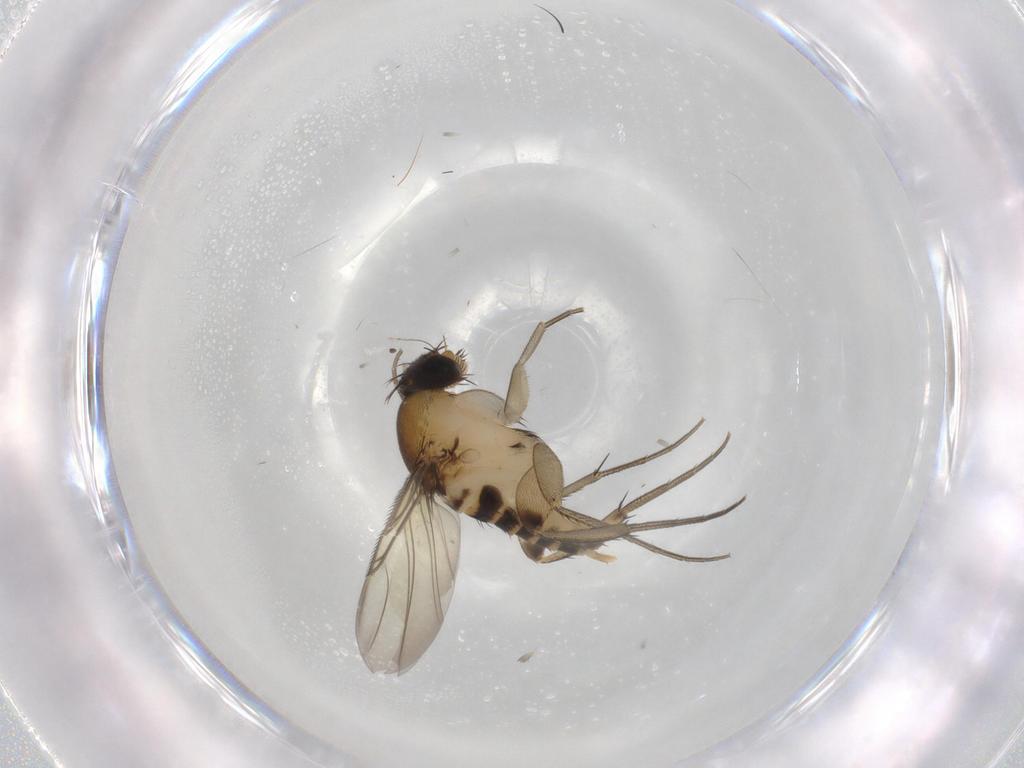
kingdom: Animalia
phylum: Arthropoda
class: Insecta
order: Diptera
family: Phoridae
